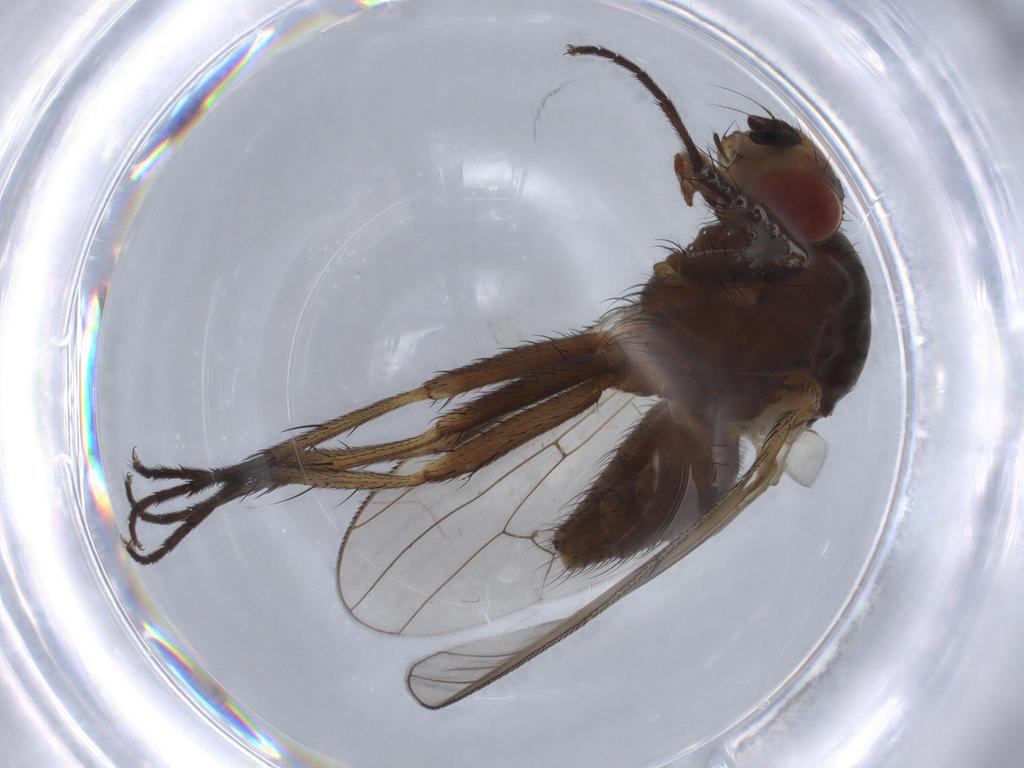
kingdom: Animalia
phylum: Arthropoda
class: Insecta
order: Diptera
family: Anthomyiidae
